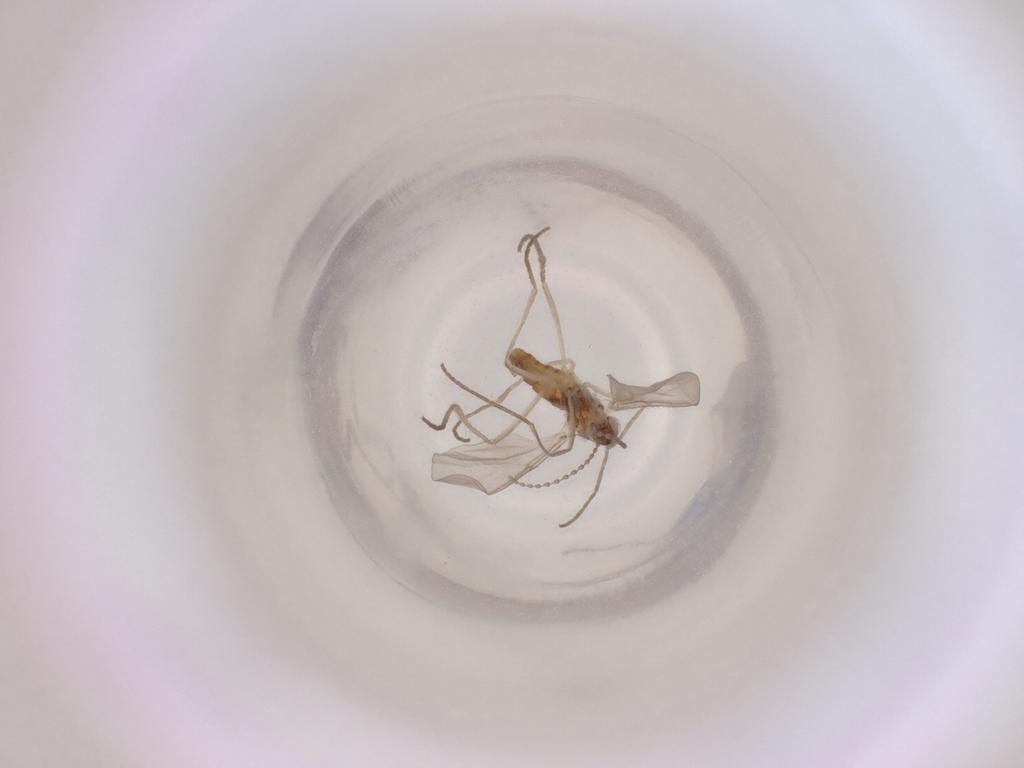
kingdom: Animalia
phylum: Arthropoda
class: Insecta
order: Diptera
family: Cecidomyiidae
